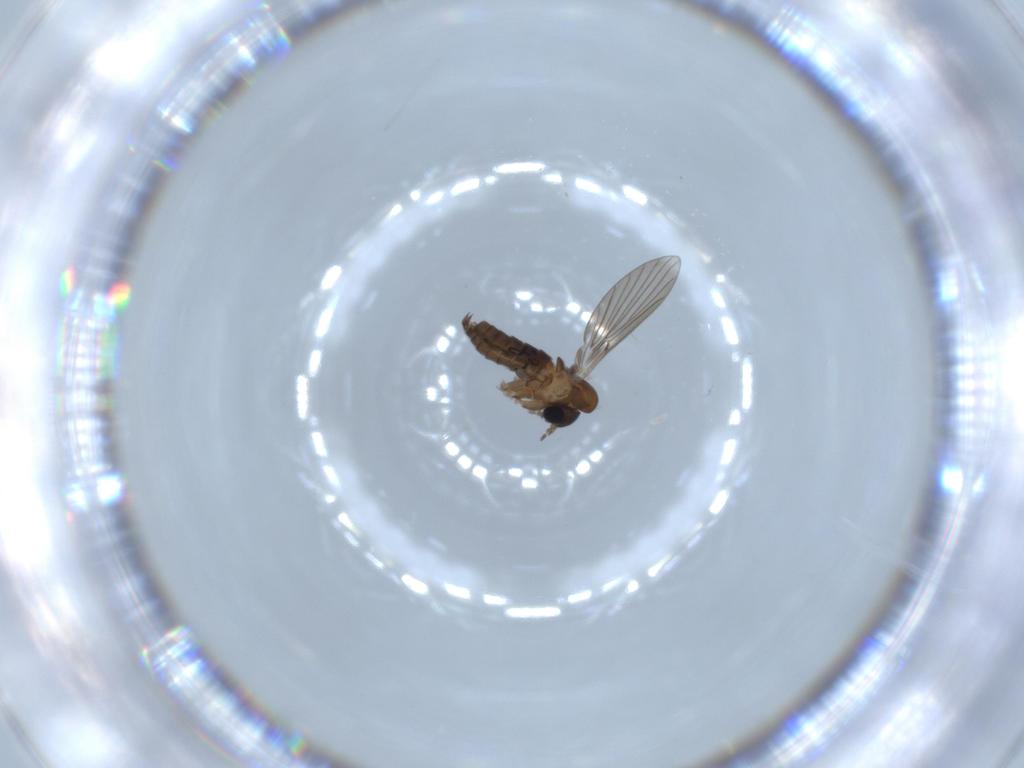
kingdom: Animalia
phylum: Arthropoda
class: Insecta
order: Diptera
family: Psychodidae
